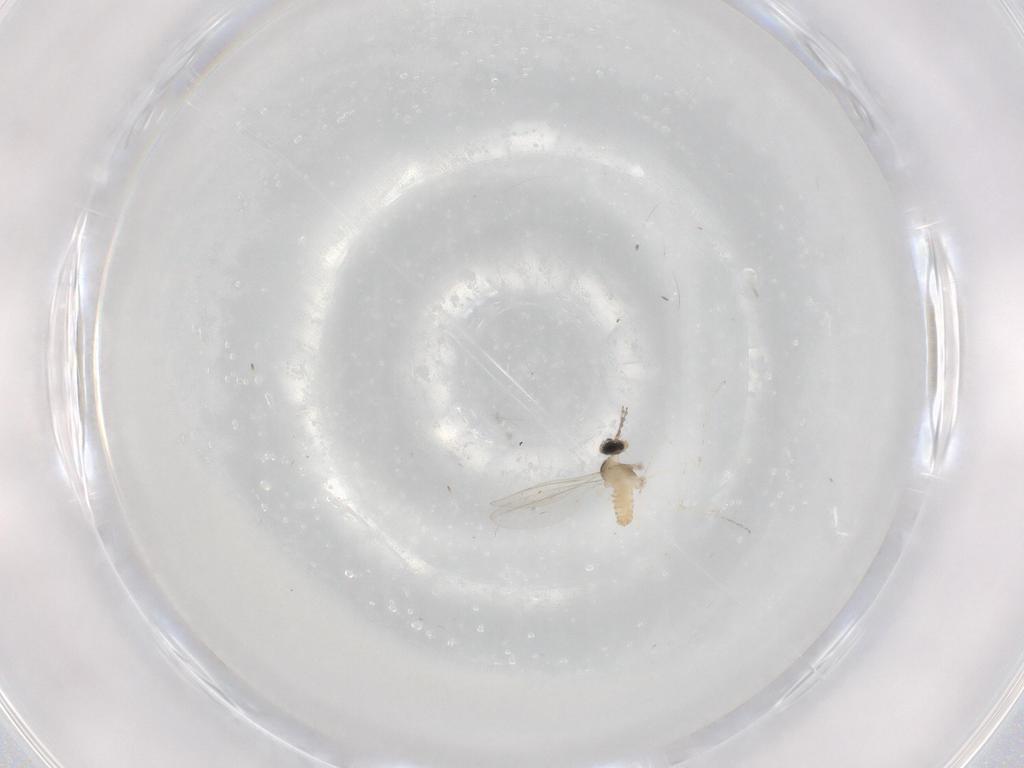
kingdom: Animalia
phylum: Arthropoda
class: Insecta
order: Diptera
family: Cecidomyiidae
